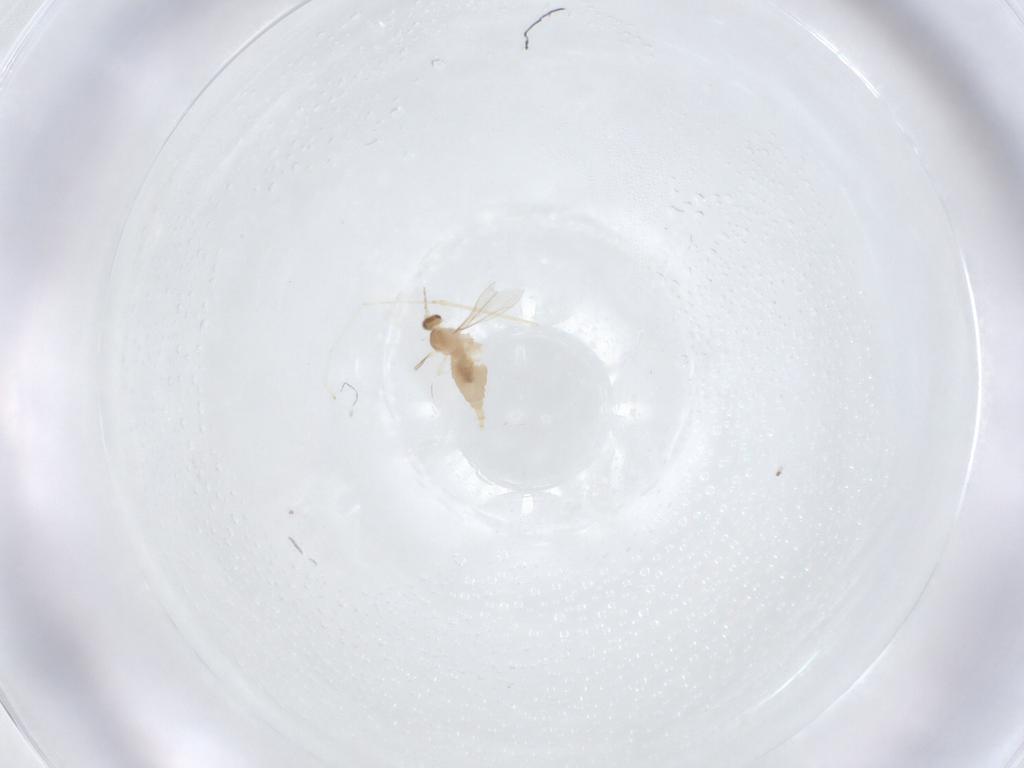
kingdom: Animalia
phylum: Arthropoda
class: Insecta
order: Diptera
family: Cecidomyiidae
